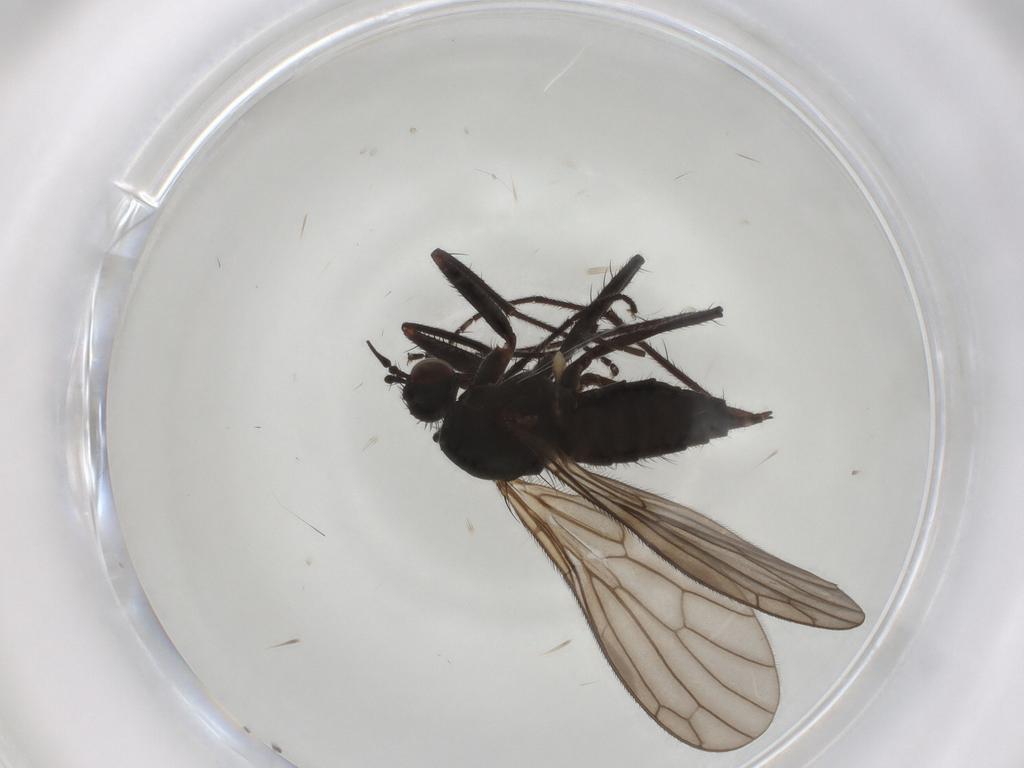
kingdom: Animalia
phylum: Arthropoda
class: Insecta
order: Diptera
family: Empididae
